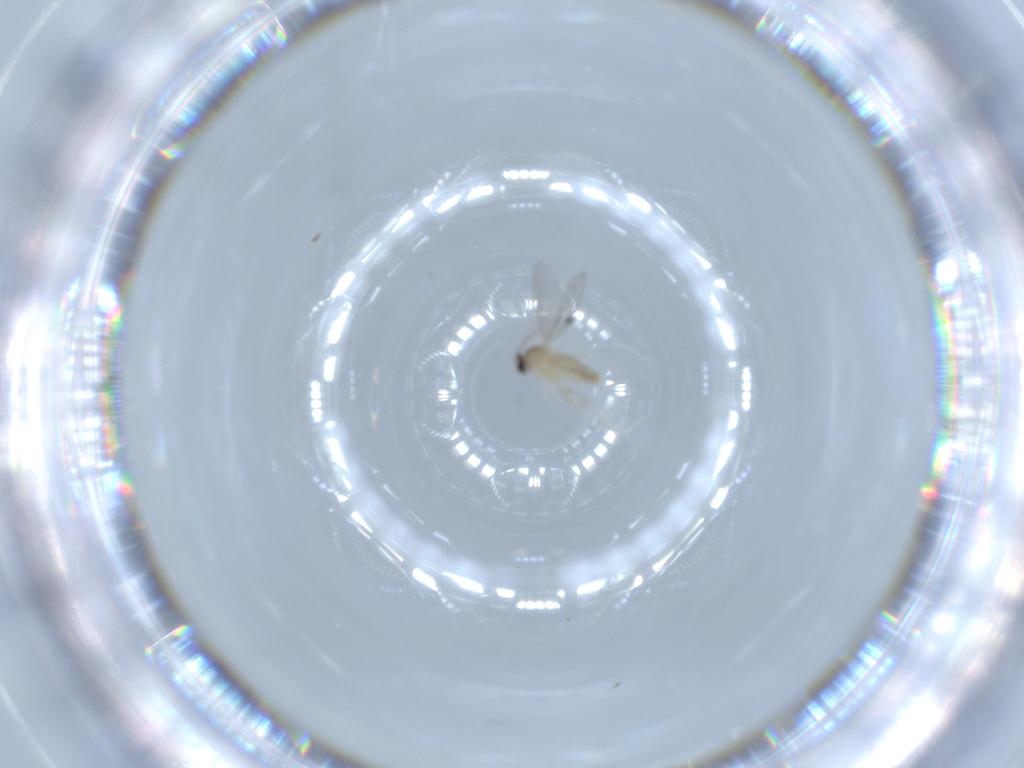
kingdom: Animalia
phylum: Arthropoda
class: Insecta
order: Diptera
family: Cecidomyiidae
